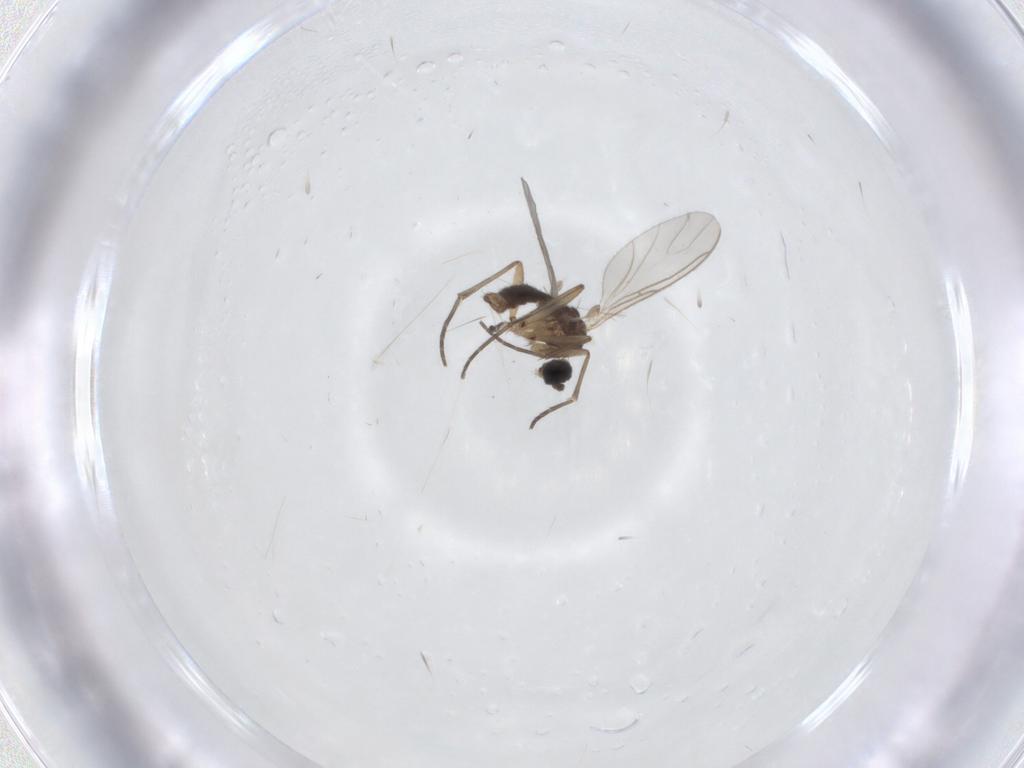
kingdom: Animalia
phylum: Arthropoda
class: Insecta
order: Diptera
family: Sciaridae
